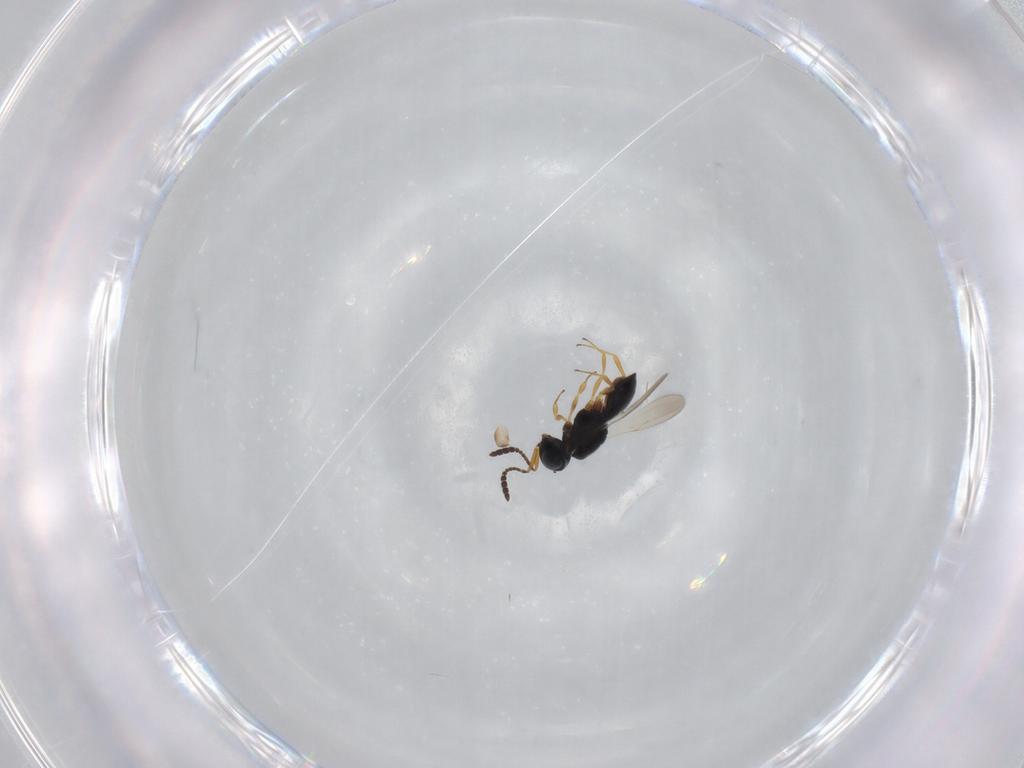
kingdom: Animalia
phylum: Arthropoda
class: Insecta
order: Hymenoptera
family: Scelionidae
